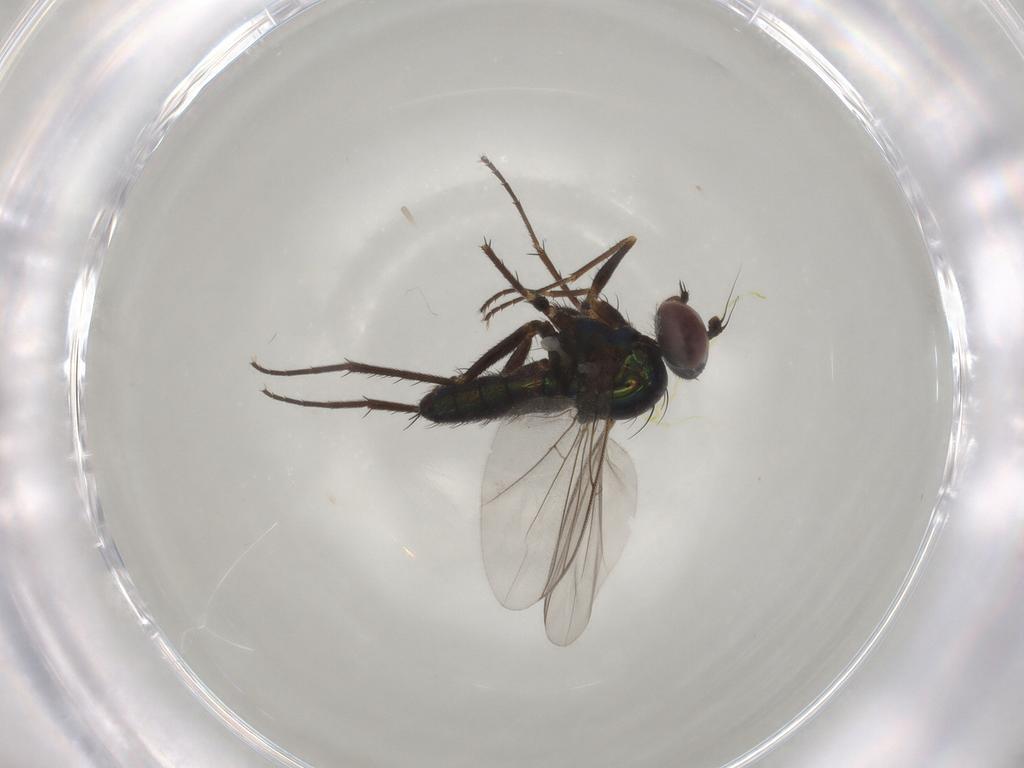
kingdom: Animalia
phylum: Arthropoda
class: Insecta
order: Diptera
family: Dolichopodidae
